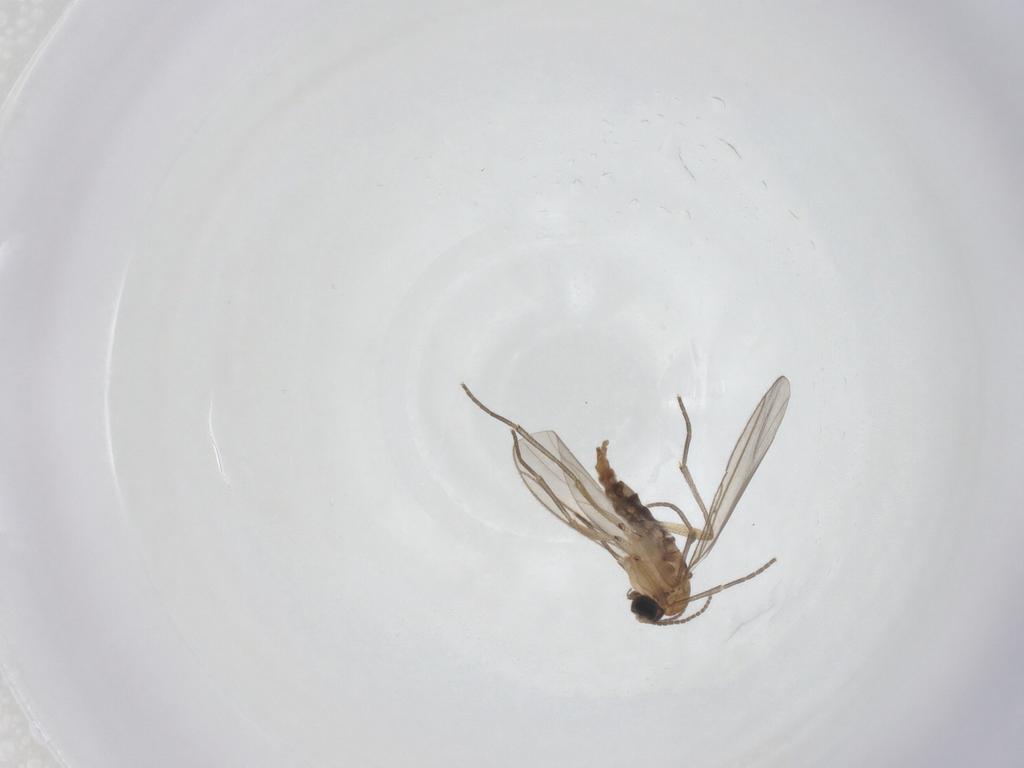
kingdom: Animalia
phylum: Arthropoda
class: Insecta
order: Diptera
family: Sciaridae
